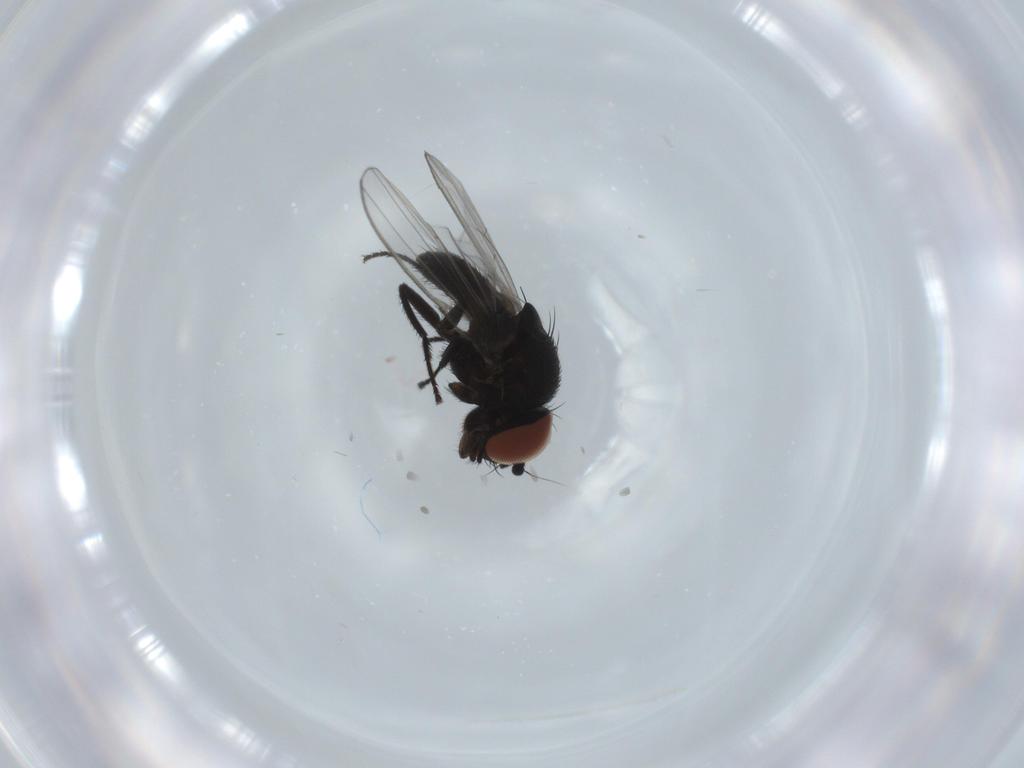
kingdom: Animalia
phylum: Arthropoda
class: Insecta
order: Diptera
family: Milichiidae
